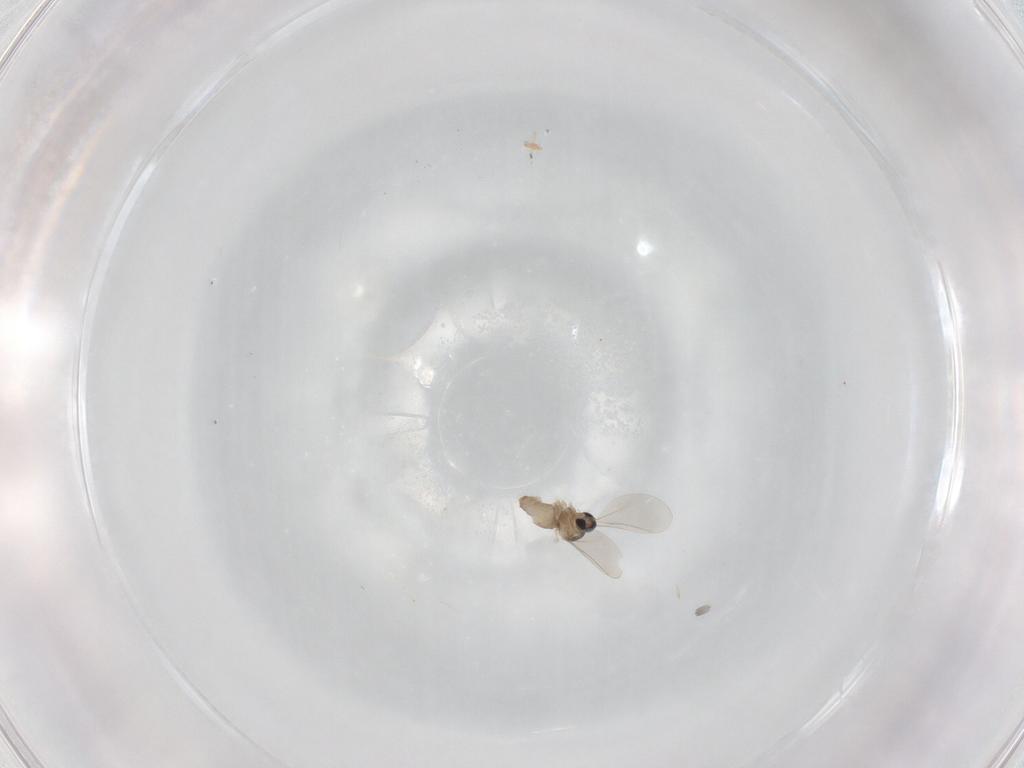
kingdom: Animalia
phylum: Arthropoda
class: Insecta
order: Diptera
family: Cecidomyiidae
